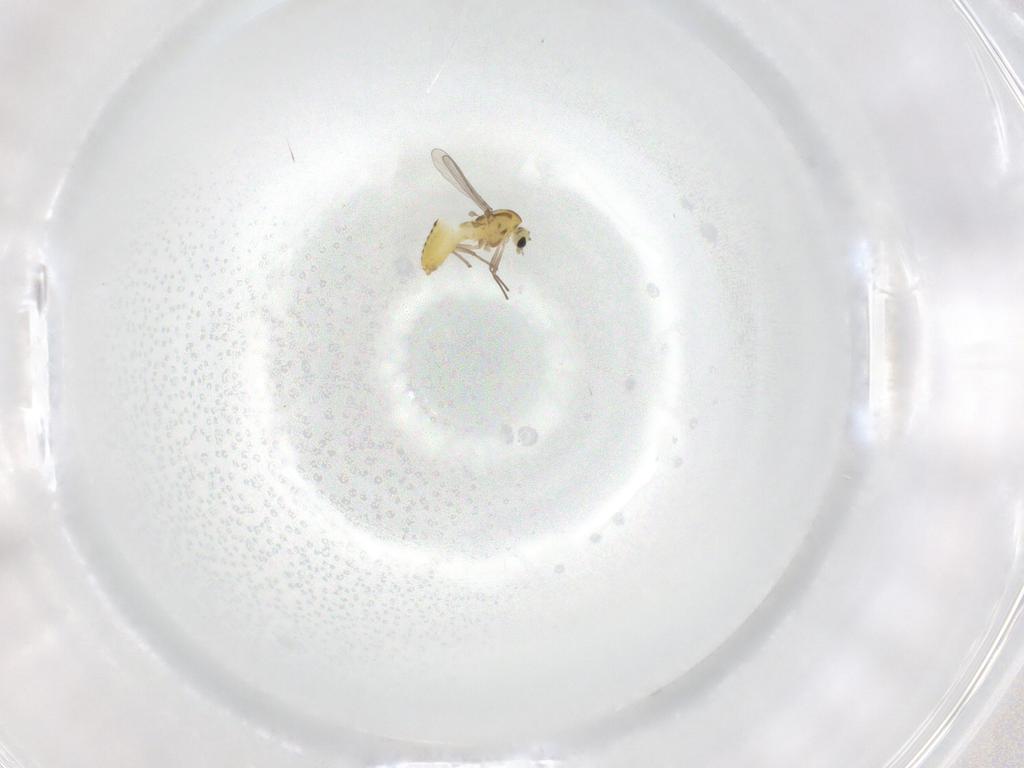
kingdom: Animalia
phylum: Arthropoda
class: Insecta
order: Diptera
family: Chironomidae
